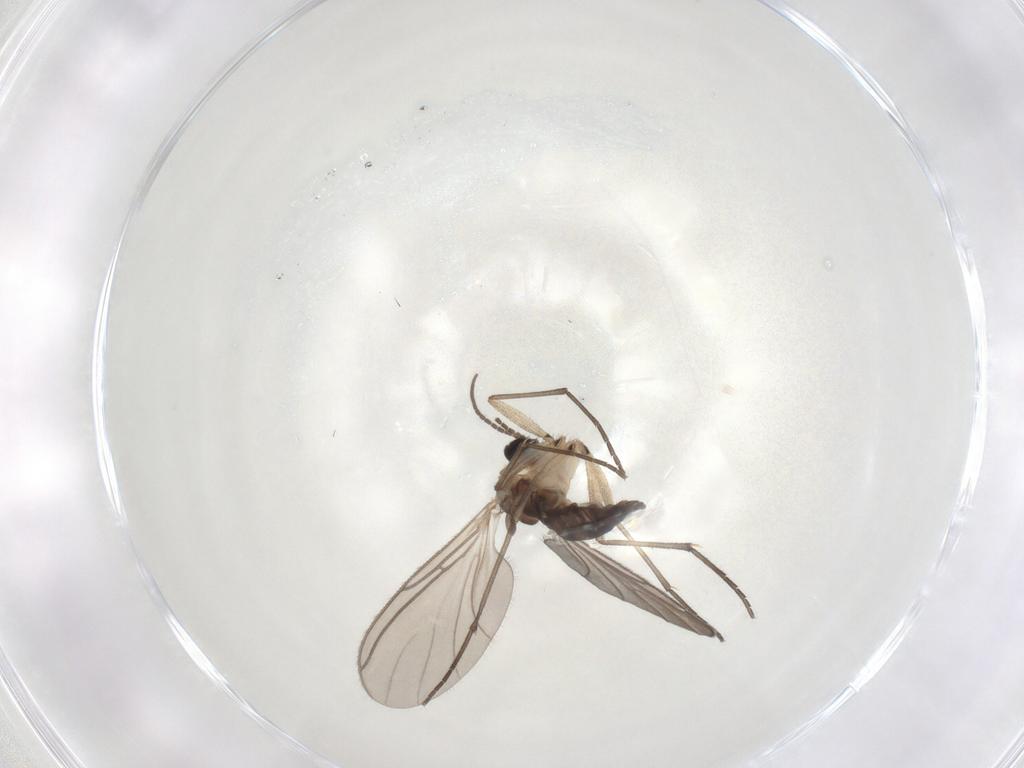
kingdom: Animalia
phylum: Arthropoda
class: Insecta
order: Diptera
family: Chironomidae
